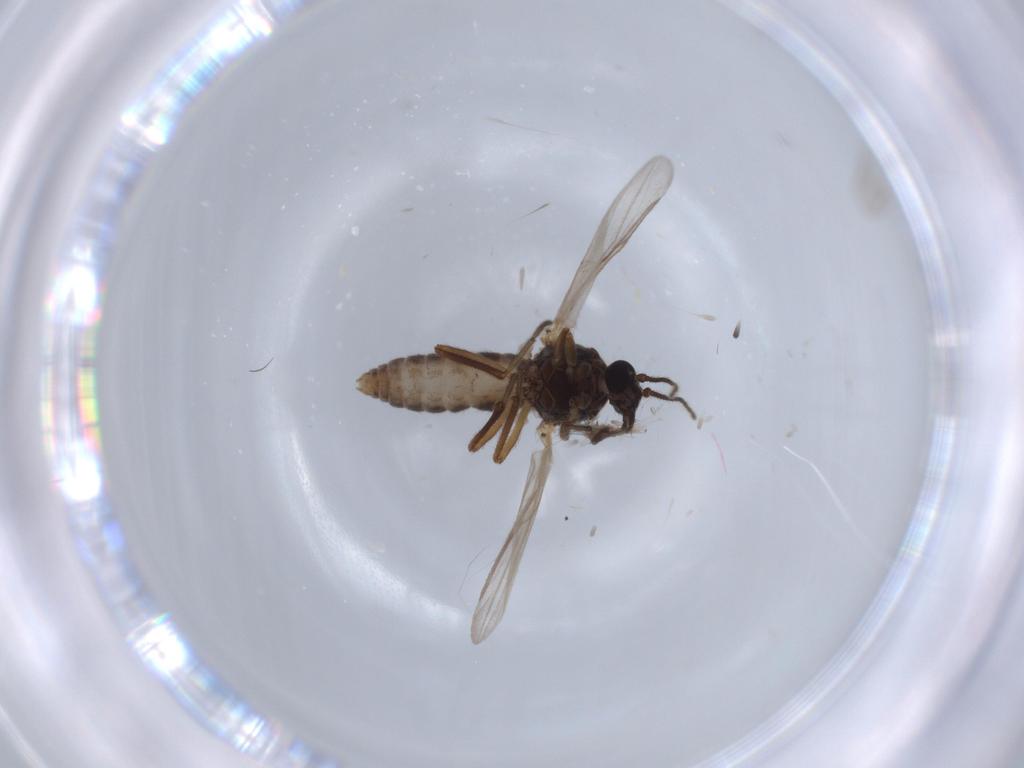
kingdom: Animalia
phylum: Arthropoda
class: Insecta
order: Diptera
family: Ceratopogonidae
